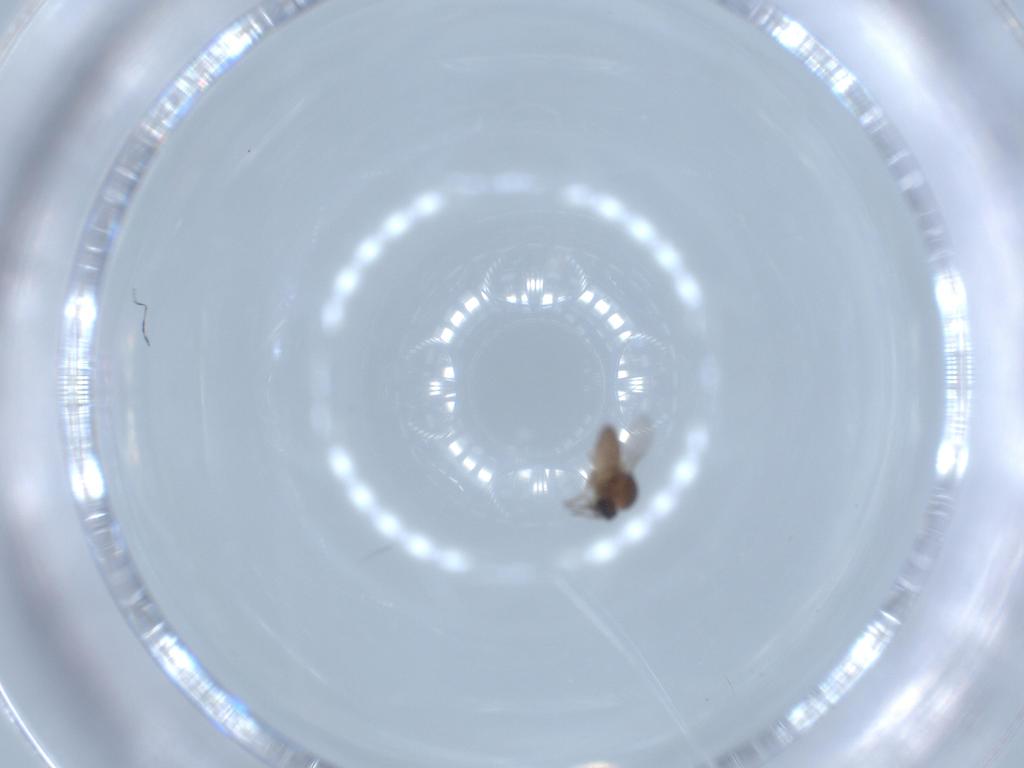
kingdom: Animalia
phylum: Arthropoda
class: Insecta
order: Diptera
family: Ceratopogonidae
